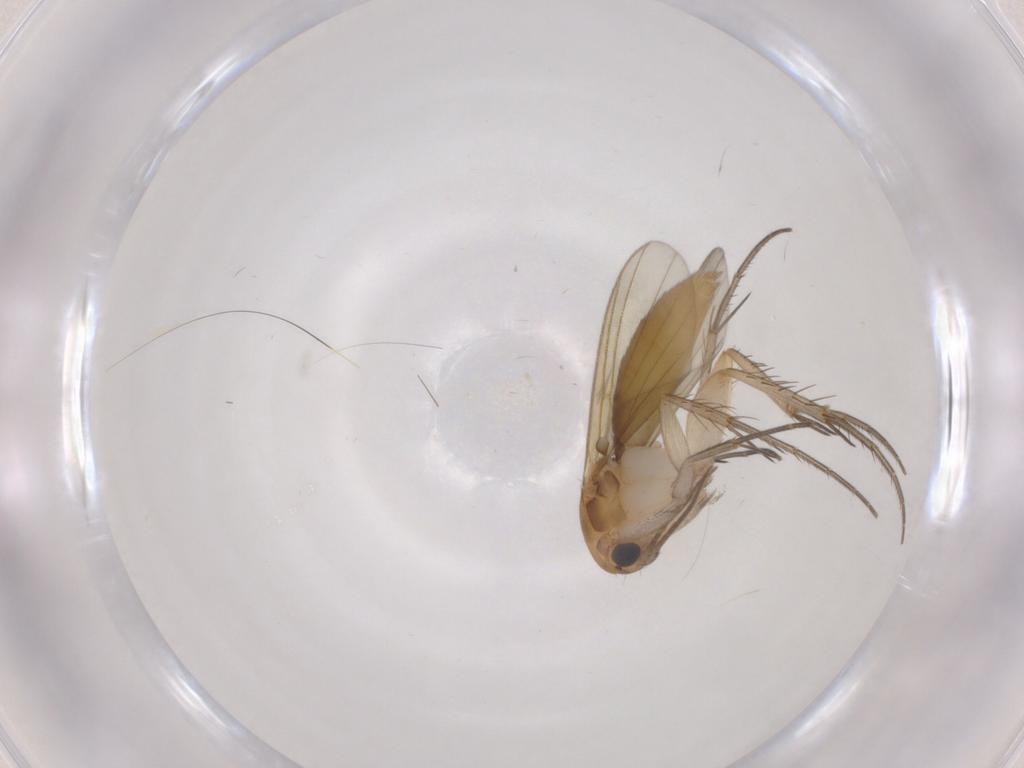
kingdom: Animalia
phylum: Arthropoda
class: Insecta
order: Diptera
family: Mycetophilidae
